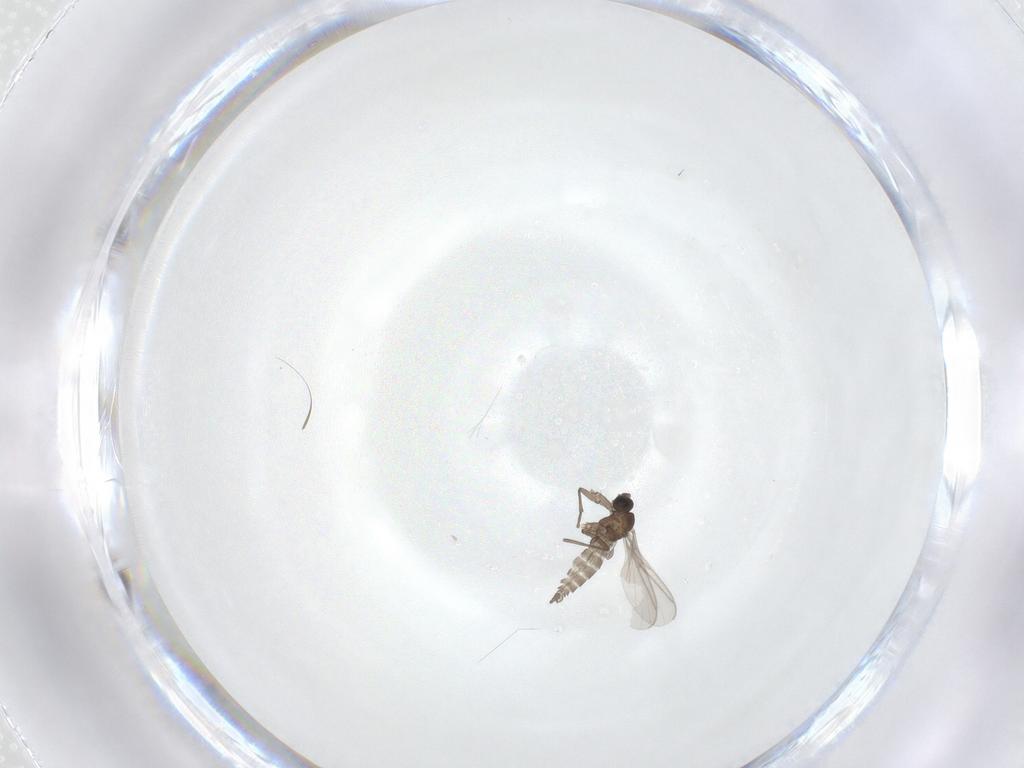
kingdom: Animalia
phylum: Arthropoda
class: Insecta
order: Diptera
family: Sciaridae
